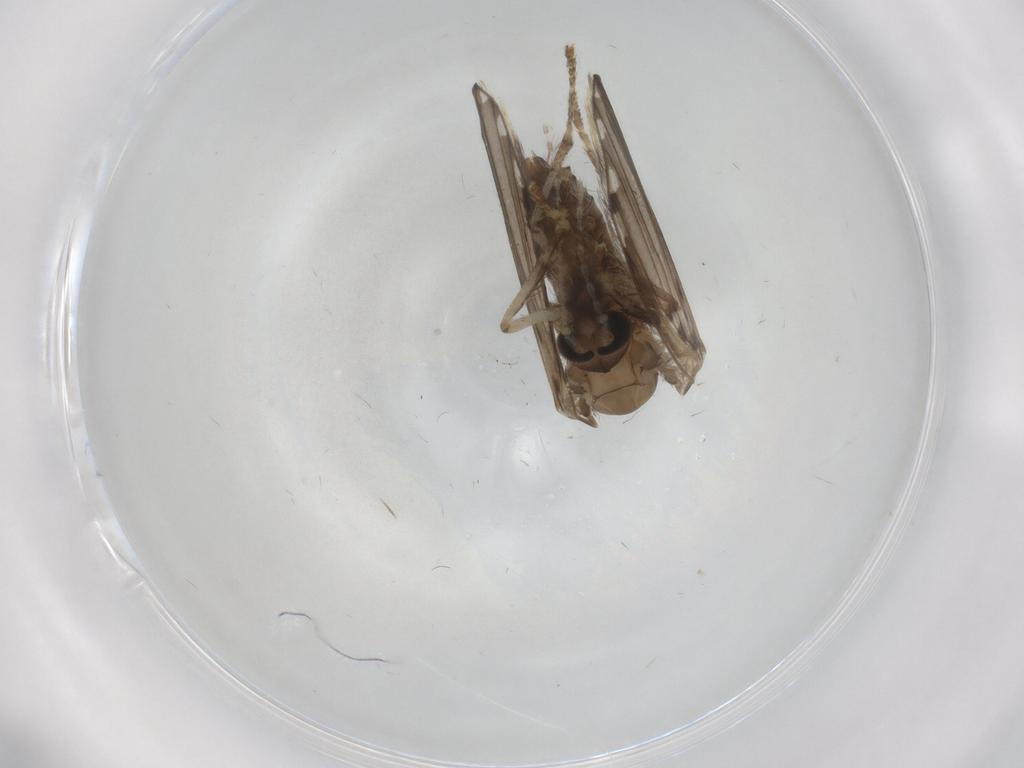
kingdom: Animalia
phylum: Arthropoda
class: Insecta
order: Diptera
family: Psychodidae
